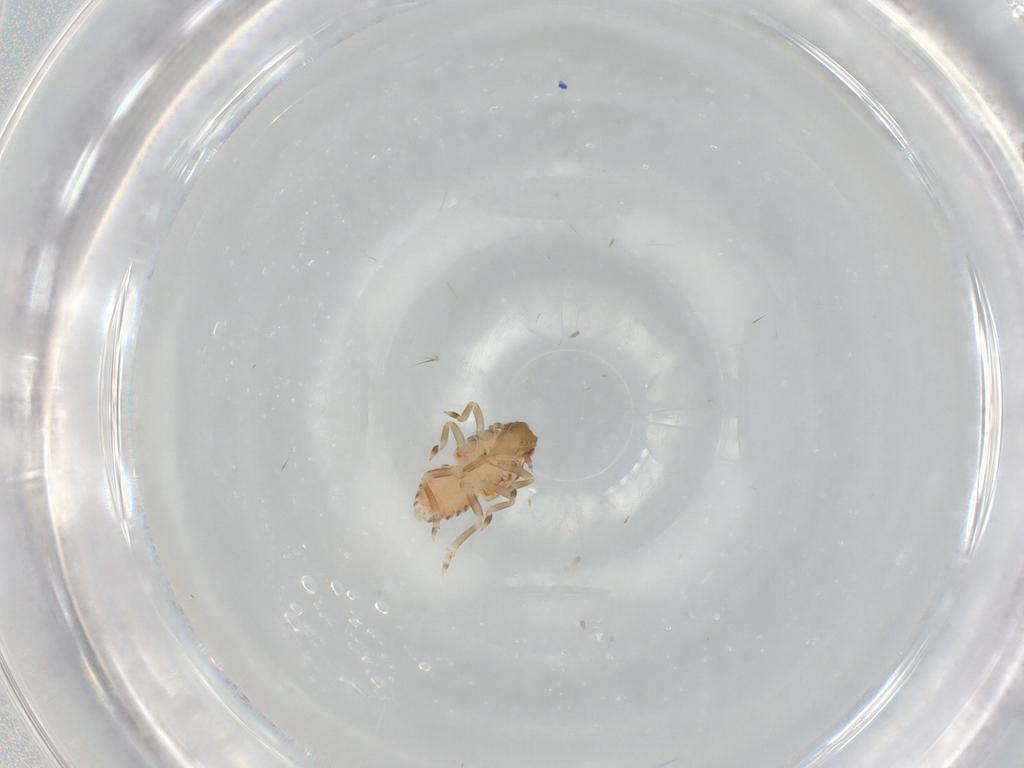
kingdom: Animalia
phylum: Arthropoda
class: Insecta
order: Hemiptera
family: Flatidae
